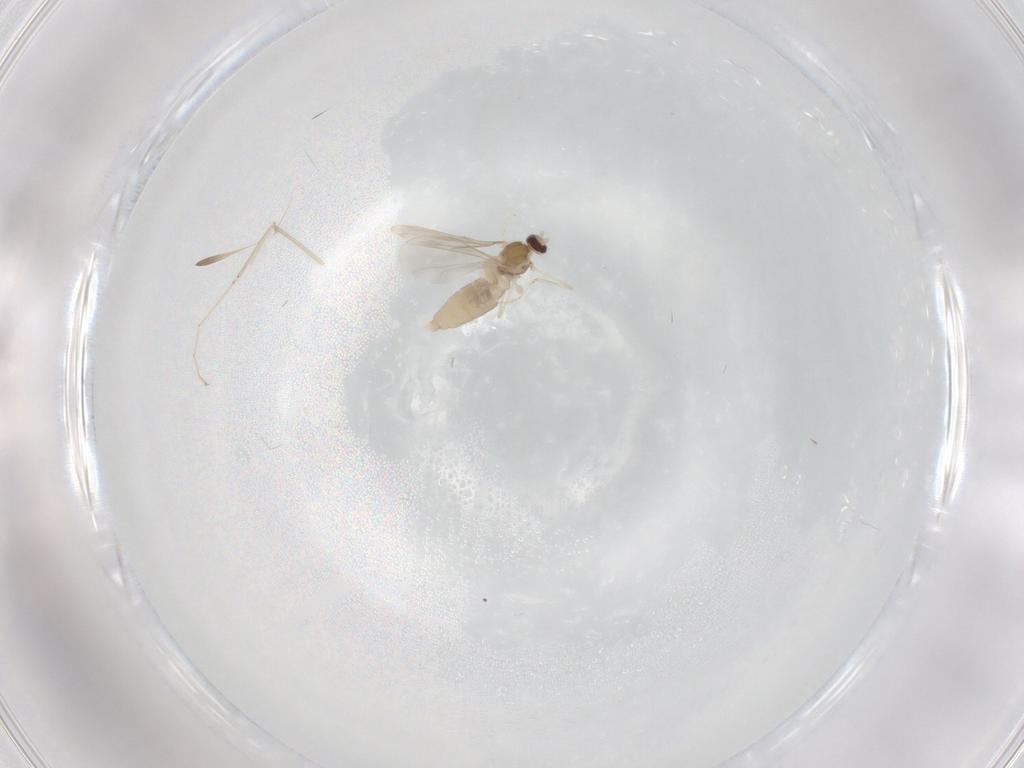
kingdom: Animalia
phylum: Arthropoda
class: Insecta
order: Diptera
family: Cecidomyiidae
